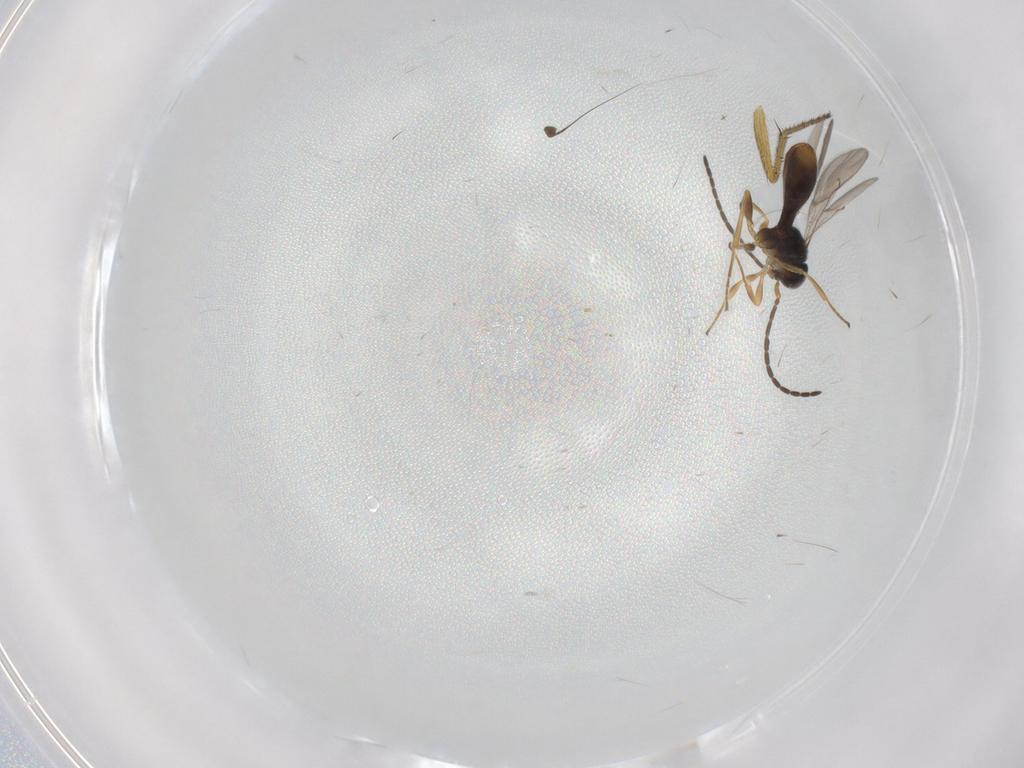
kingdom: Animalia
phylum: Arthropoda
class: Insecta
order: Hymenoptera
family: Scelionidae
